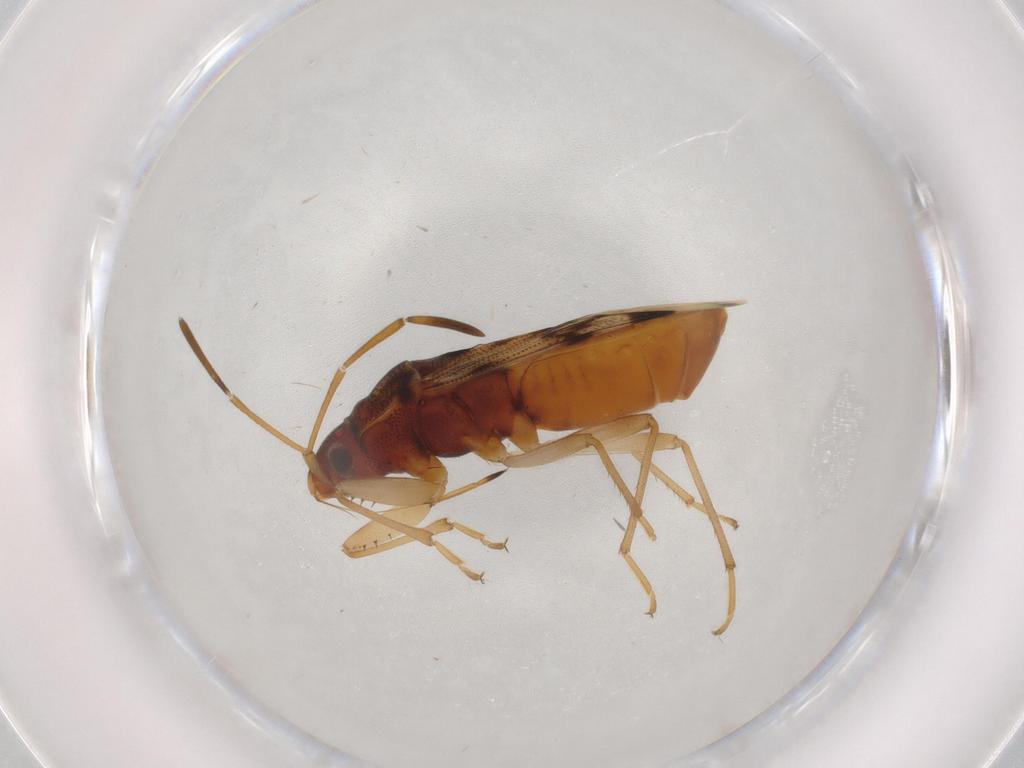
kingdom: Animalia
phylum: Arthropoda
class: Insecta
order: Hemiptera
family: Rhyparochromidae
